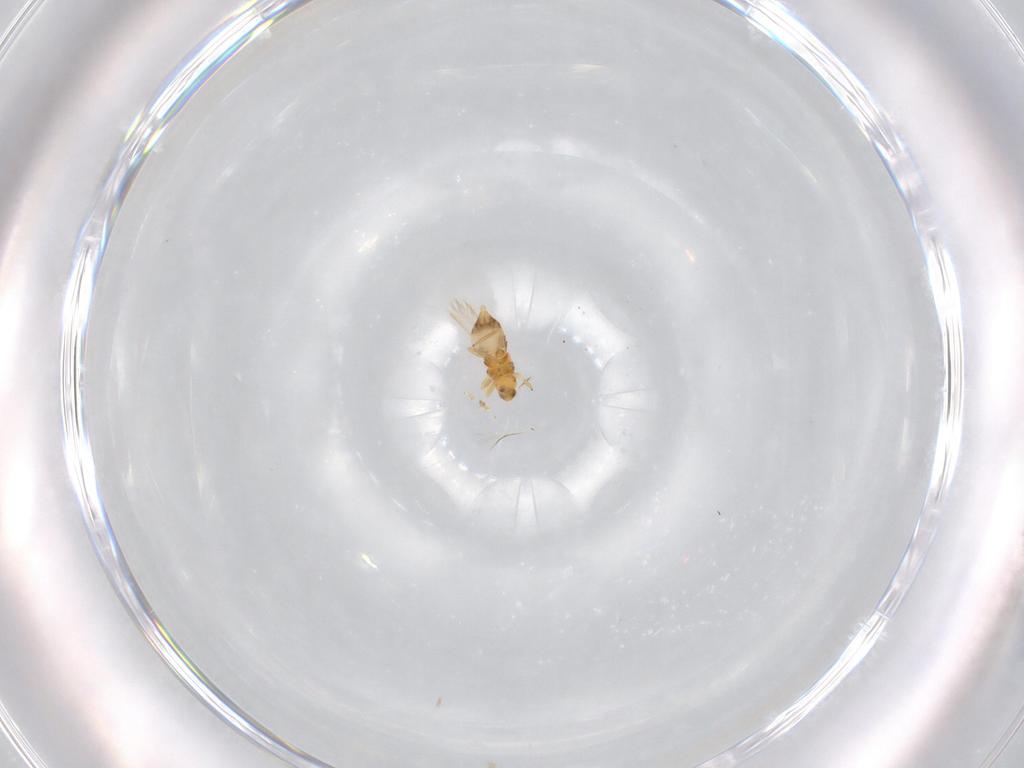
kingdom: Animalia
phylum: Arthropoda
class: Insecta
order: Thysanoptera
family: Thripidae
